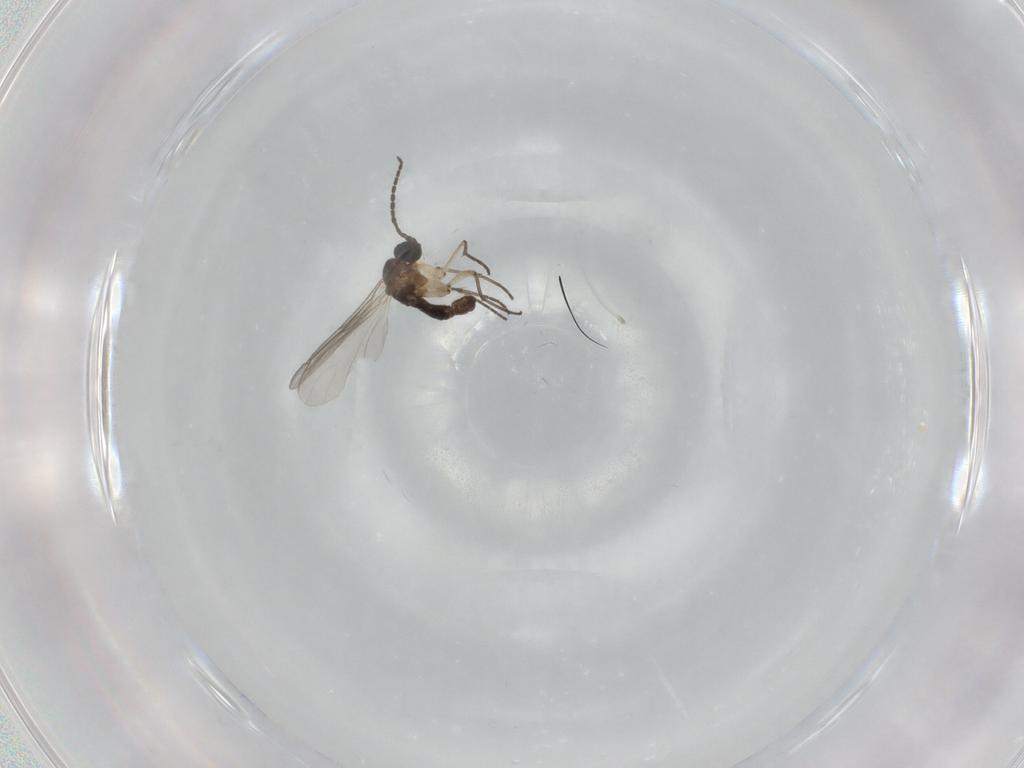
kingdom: Animalia
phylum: Arthropoda
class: Insecta
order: Diptera
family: Sciaridae
